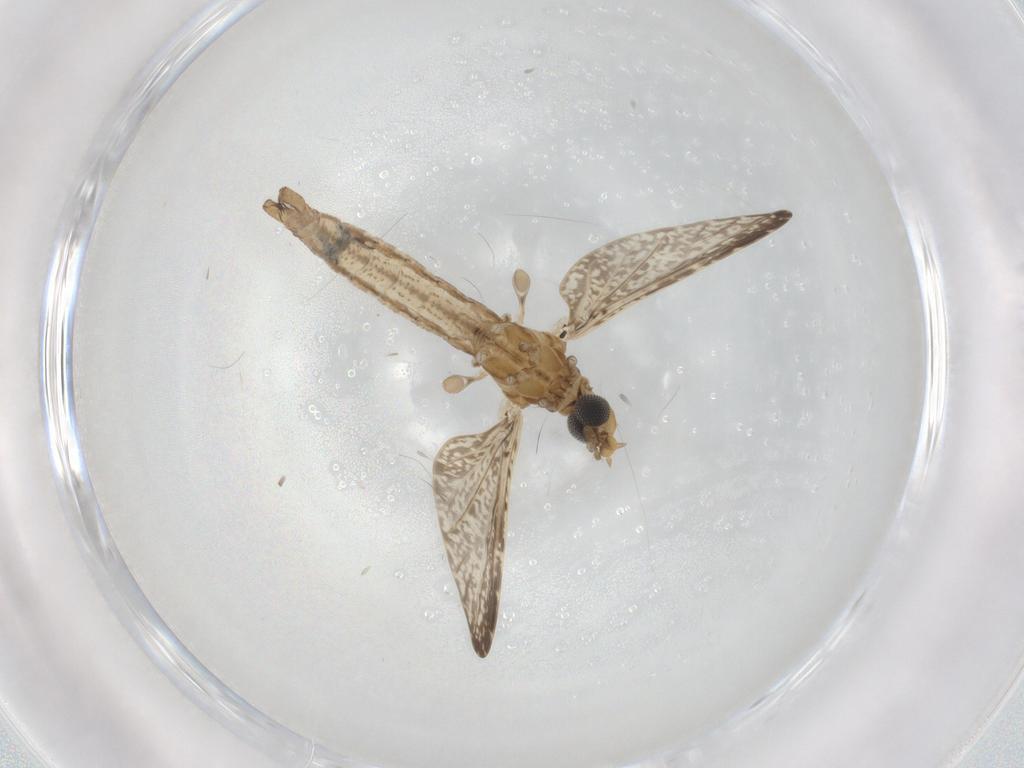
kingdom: Animalia
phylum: Arthropoda
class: Insecta
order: Diptera
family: Limoniidae
